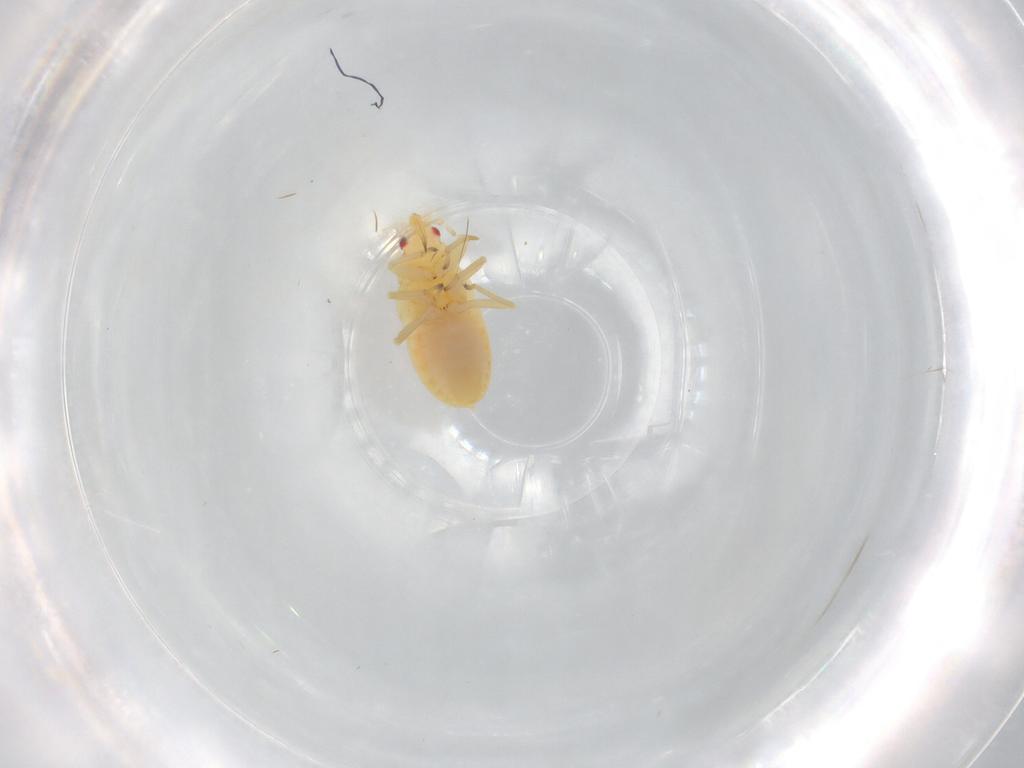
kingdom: Animalia
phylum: Arthropoda
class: Insecta
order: Hemiptera
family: Anthocoridae
